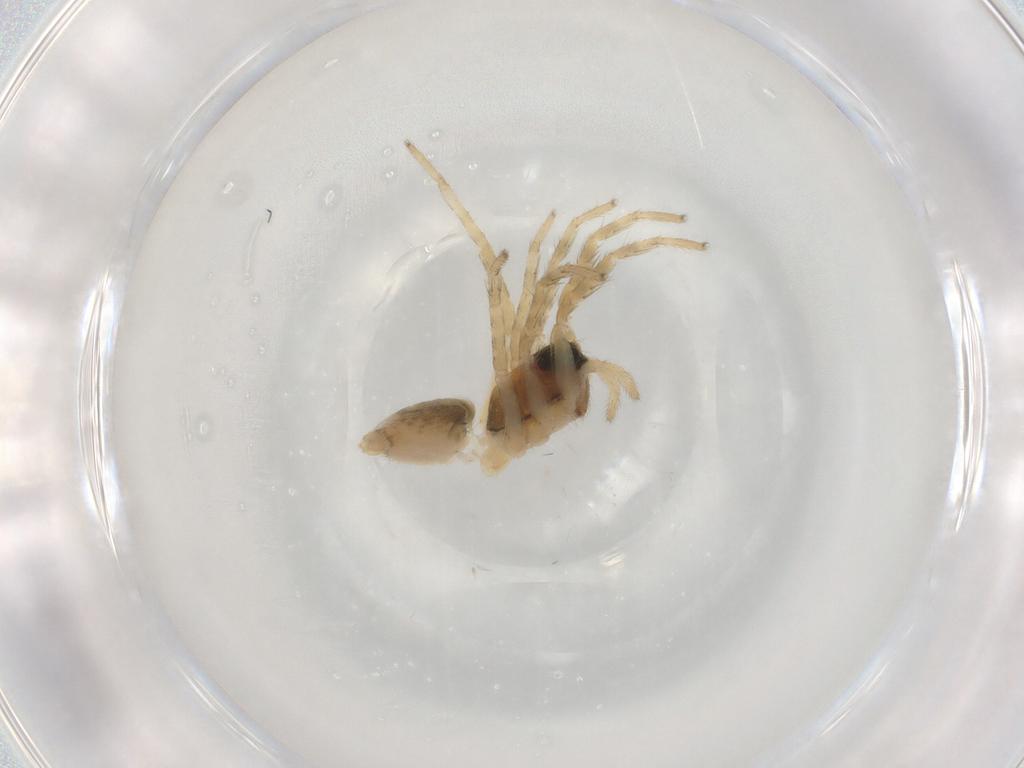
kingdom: Animalia
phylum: Arthropoda
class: Arachnida
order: Araneae
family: Lycosidae
